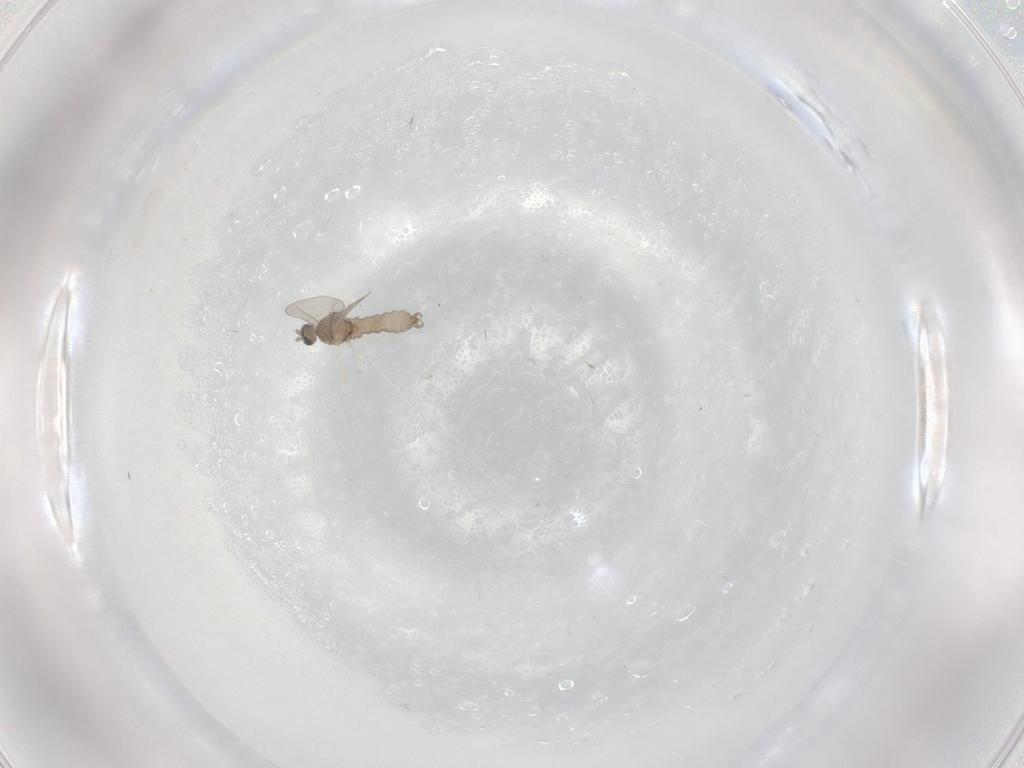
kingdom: Animalia
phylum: Arthropoda
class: Insecta
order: Diptera
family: Cecidomyiidae
